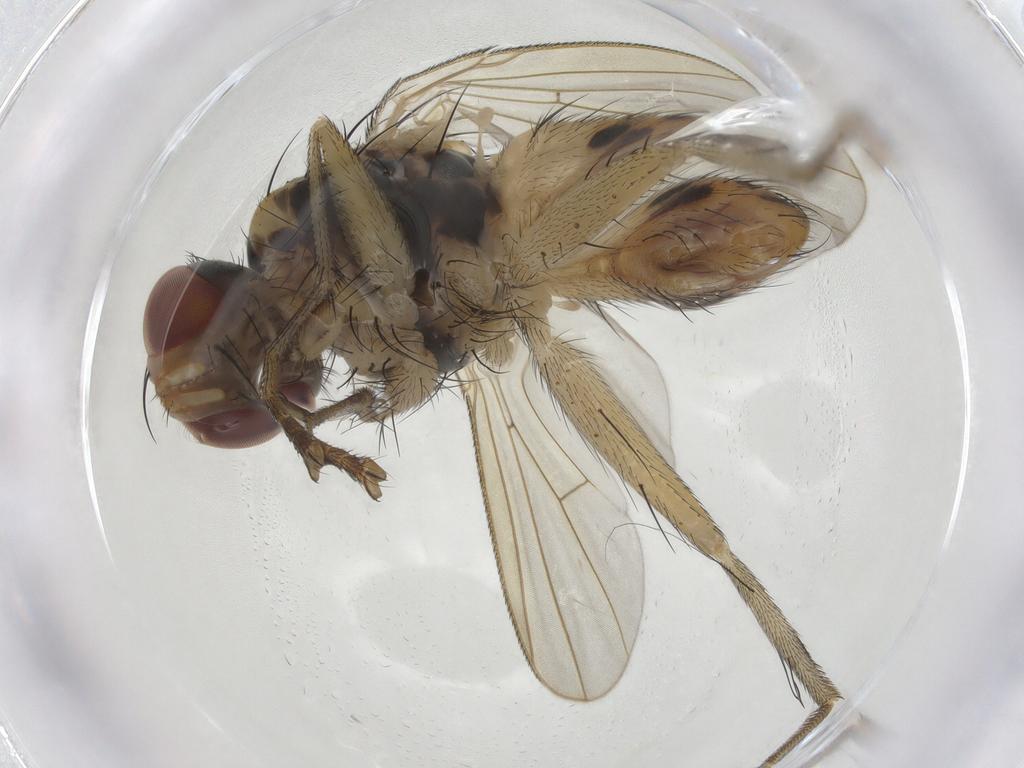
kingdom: Animalia
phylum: Arthropoda
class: Insecta
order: Diptera
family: Muscidae
